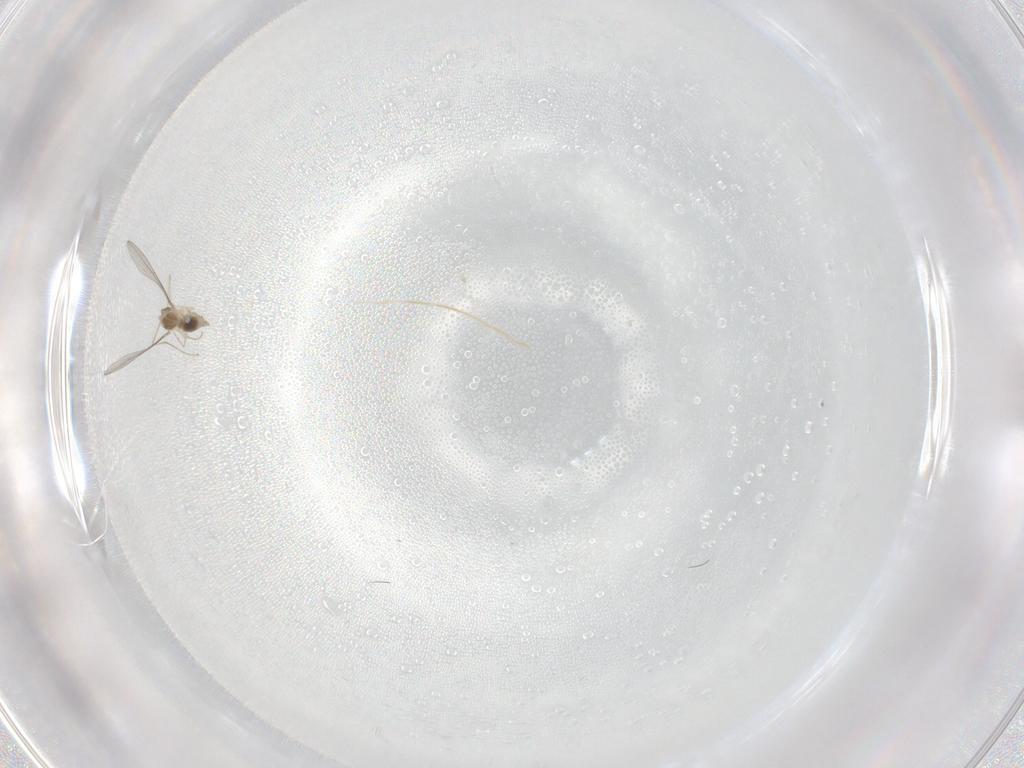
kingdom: Animalia
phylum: Arthropoda
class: Insecta
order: Diptera
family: Cecidomyiidae
